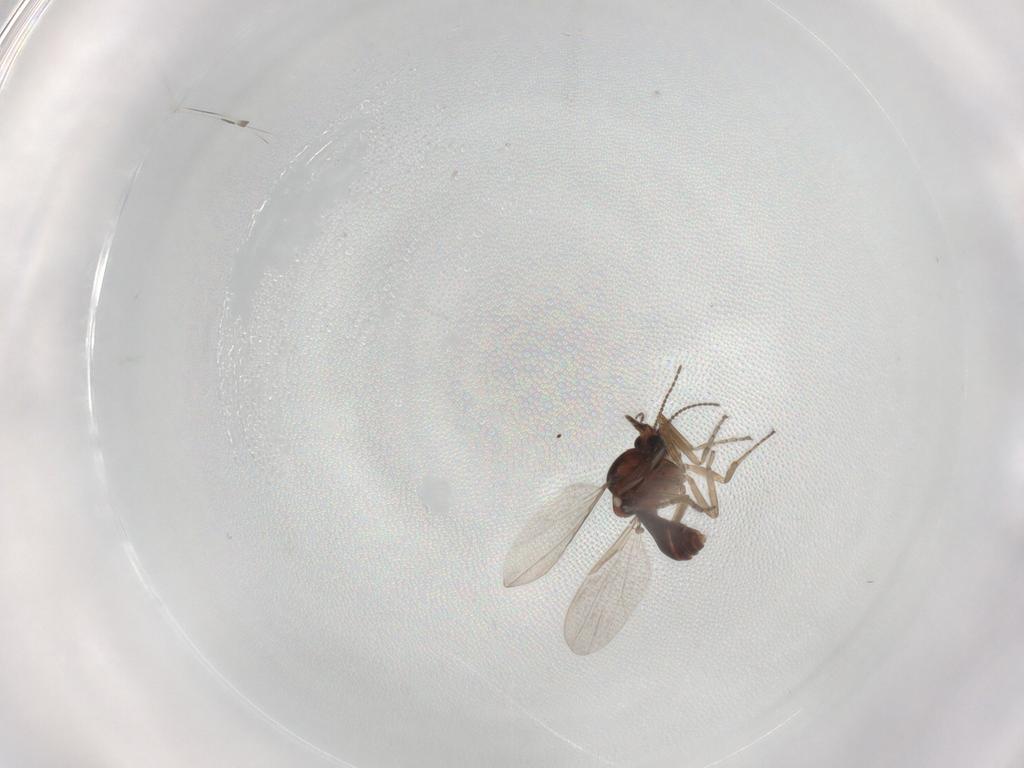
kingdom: Animalia
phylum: Arthropoda
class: Insecta
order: Diptera
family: Ceratopogonidae
